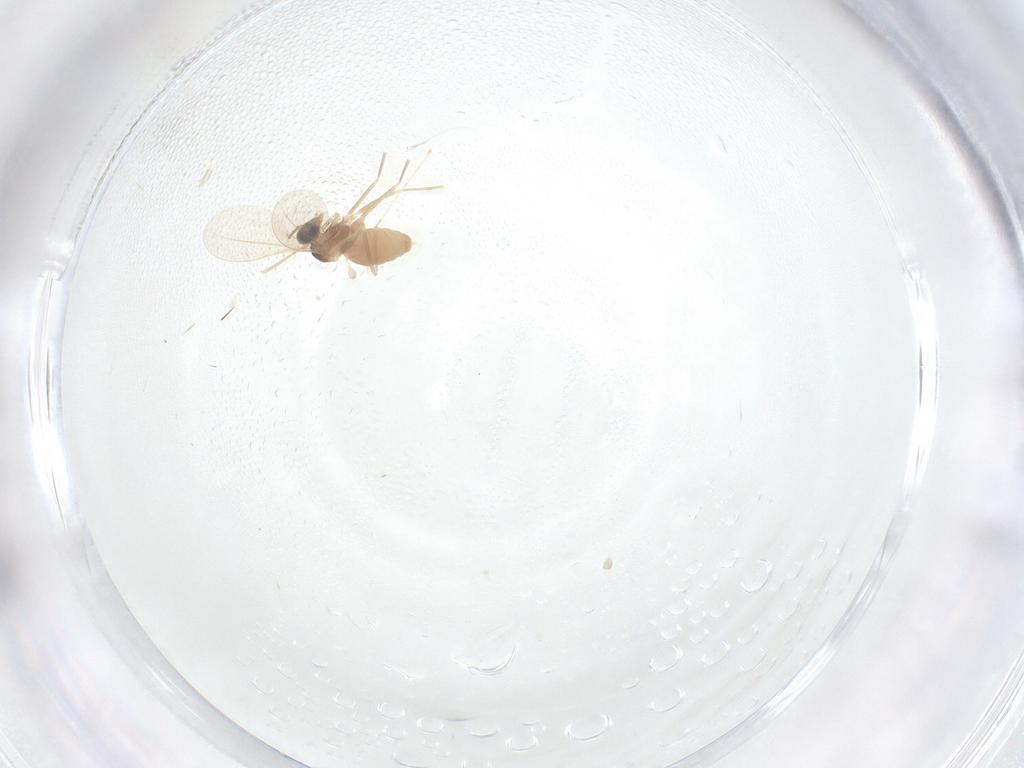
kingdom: Animalia
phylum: Arthropoda
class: Insecta
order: Diptera
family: Cecidomyiidae
